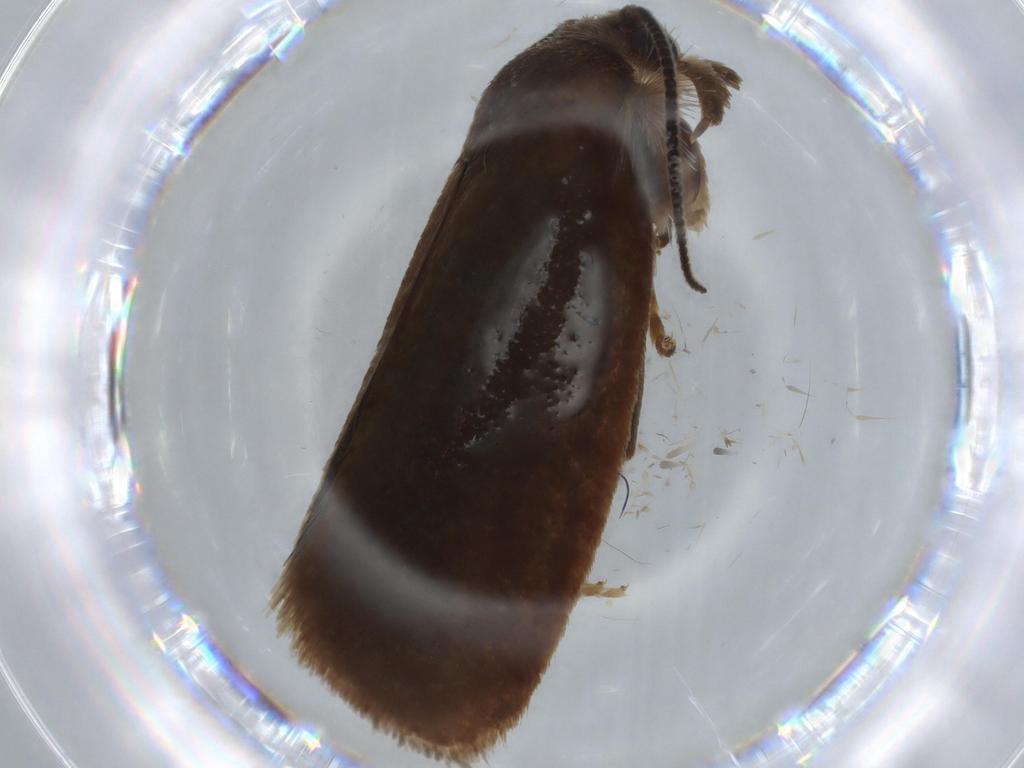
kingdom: Animalia
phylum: Arthropoda
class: Insecta
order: Lepidoptera
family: Tineidae
